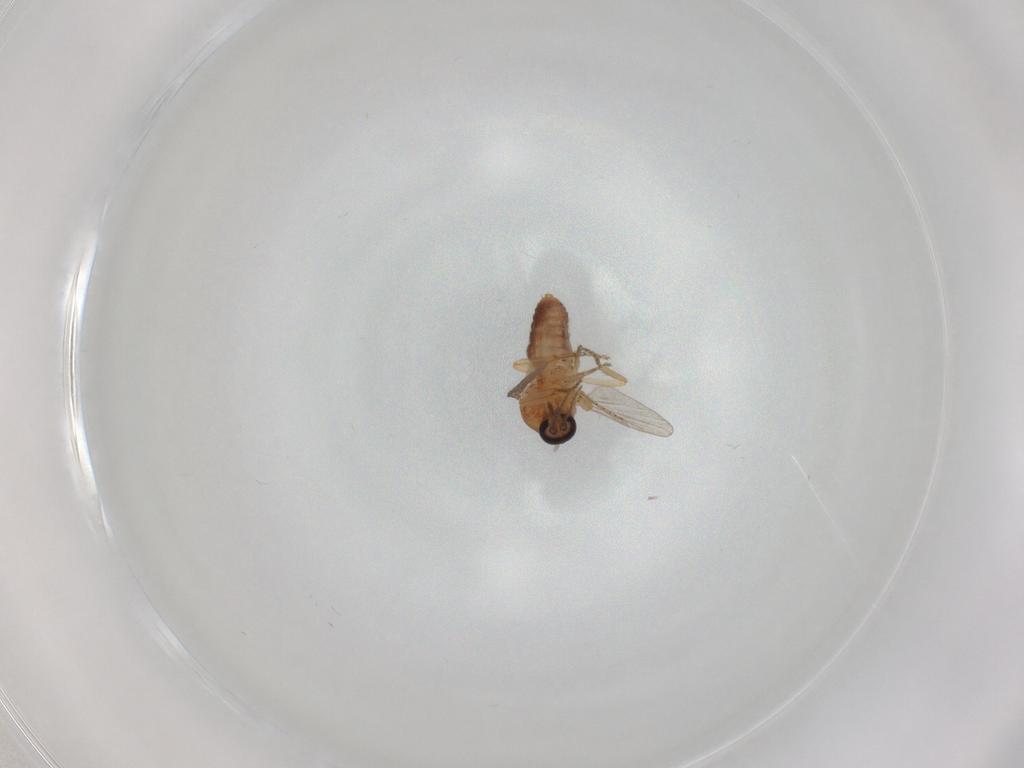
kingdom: Animalia
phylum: Arthropoda
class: Insecta
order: Diptera
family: Ceratopogonidae
